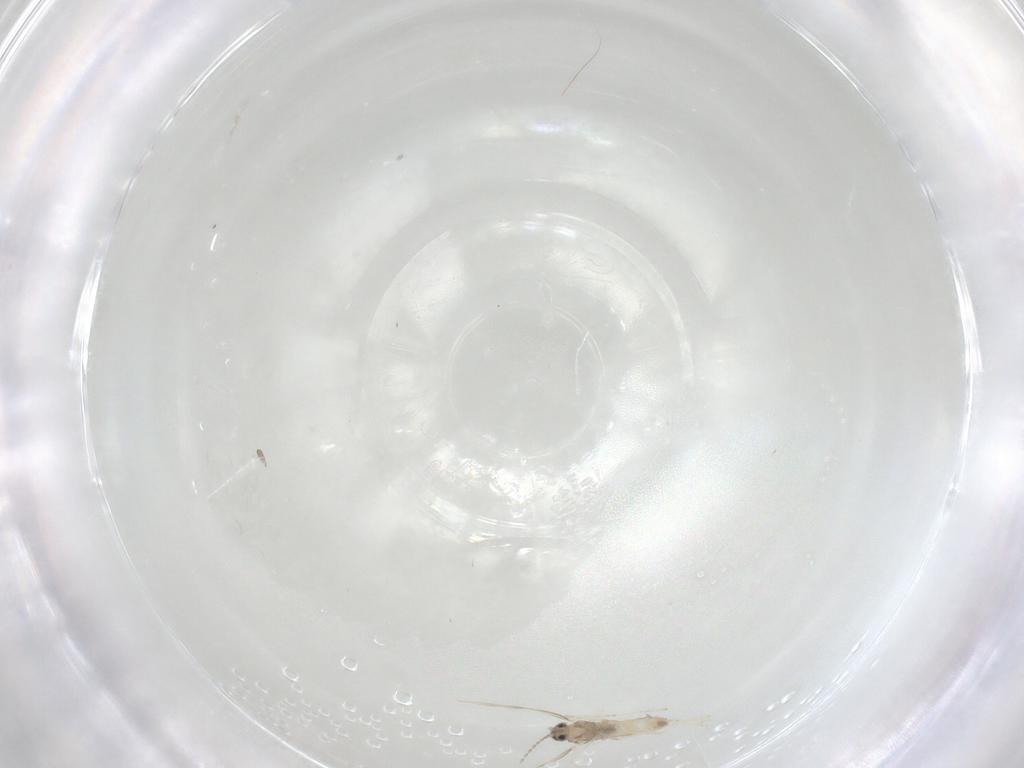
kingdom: Animalia
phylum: Arthropoda
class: Insecta
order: Diptera
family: Cecidomyiidae
